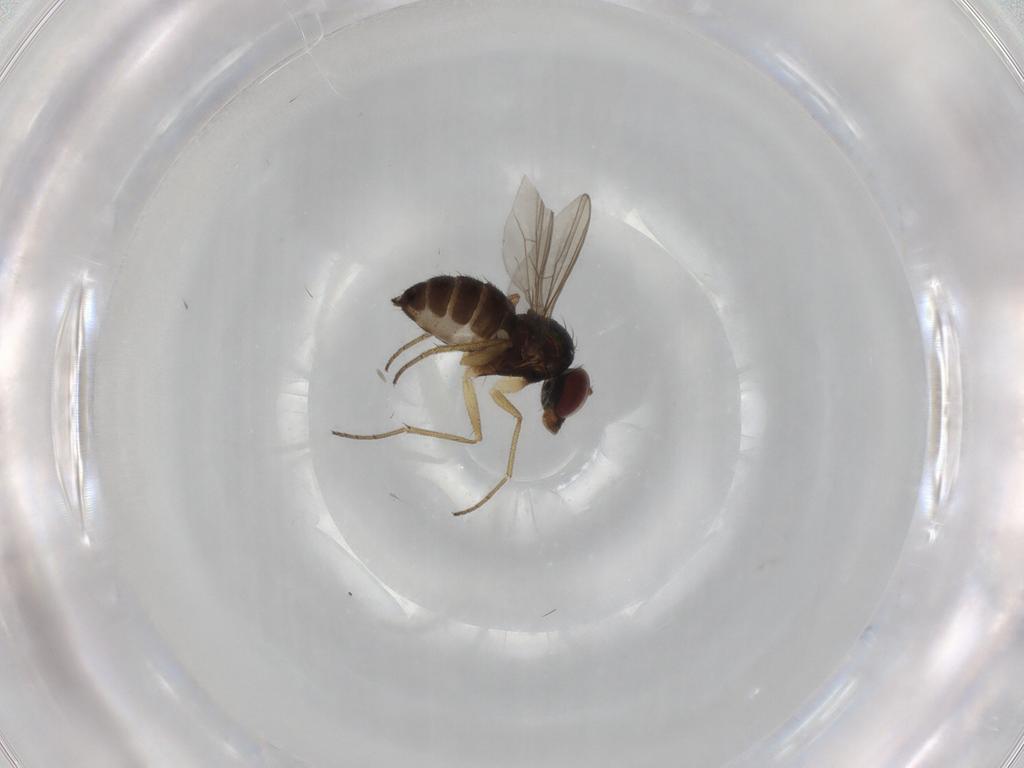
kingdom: Animalia
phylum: Arthropoda
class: Insecta
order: Diptera
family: Dolichopodidae
